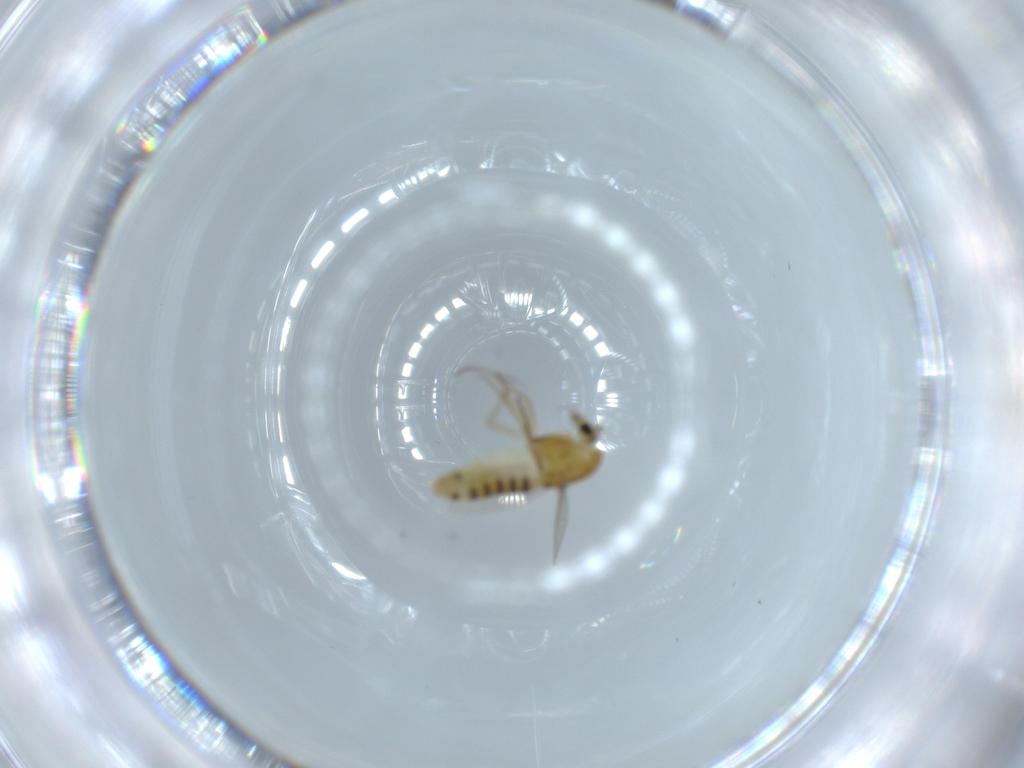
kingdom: Animalia
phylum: Arthropoda
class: Insecta
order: Diptera
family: Chironomidae
